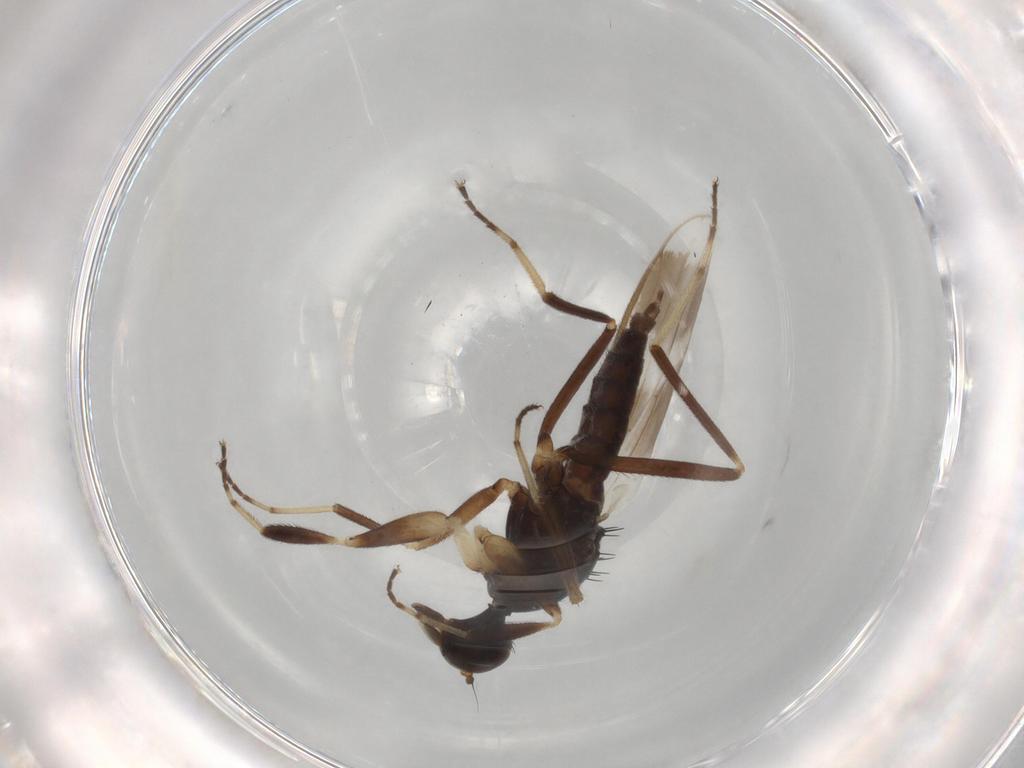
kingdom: Animalia
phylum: Arthropoda
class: Insecta
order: Diptera
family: Hybotidae
